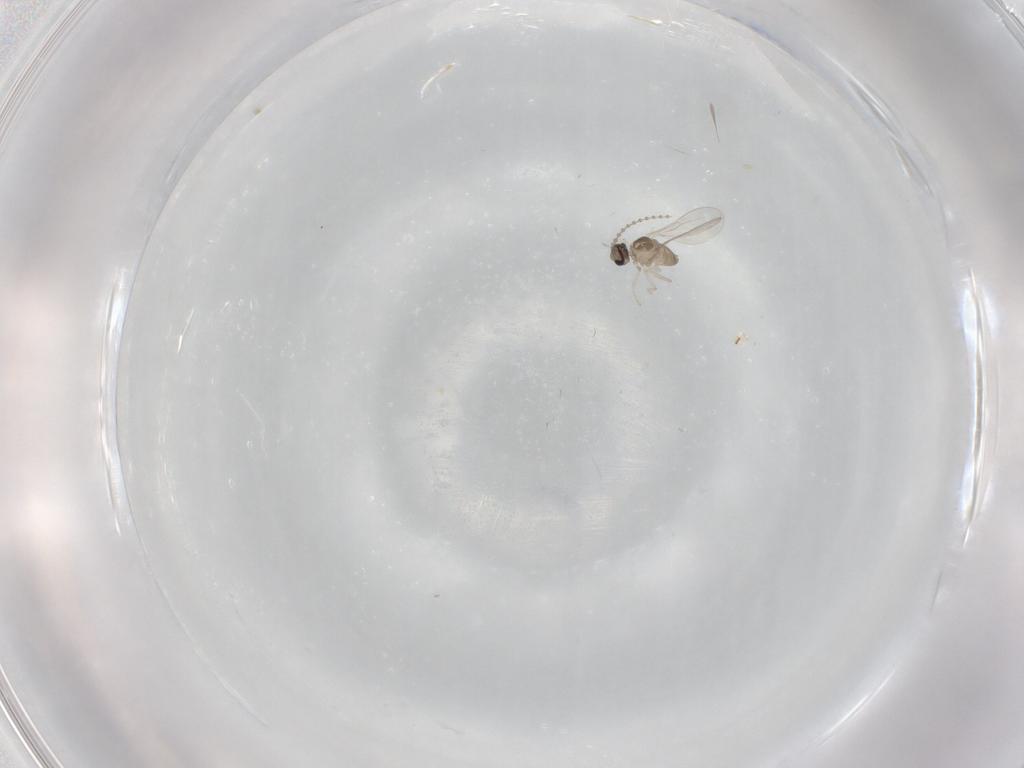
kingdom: Animalia
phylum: Arthropoda
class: Insecta
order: Diptera
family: Cecidomyiidae
